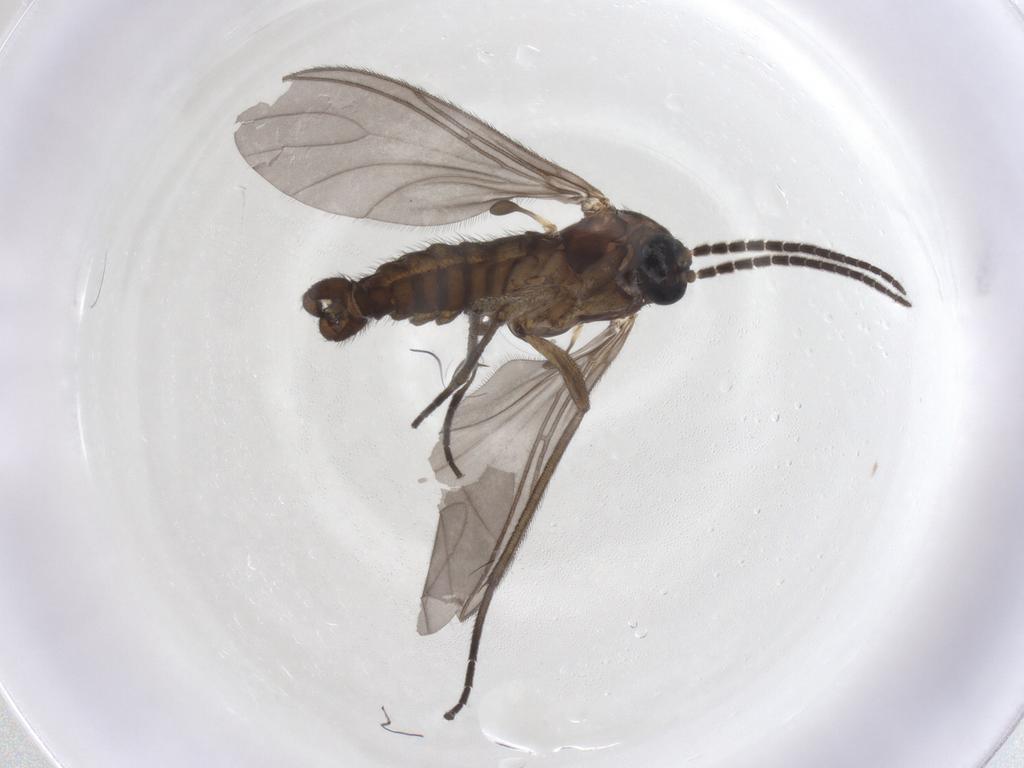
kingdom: Animalia
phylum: Arthropoda
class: Insecta
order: Diptera
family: Sciaridae
